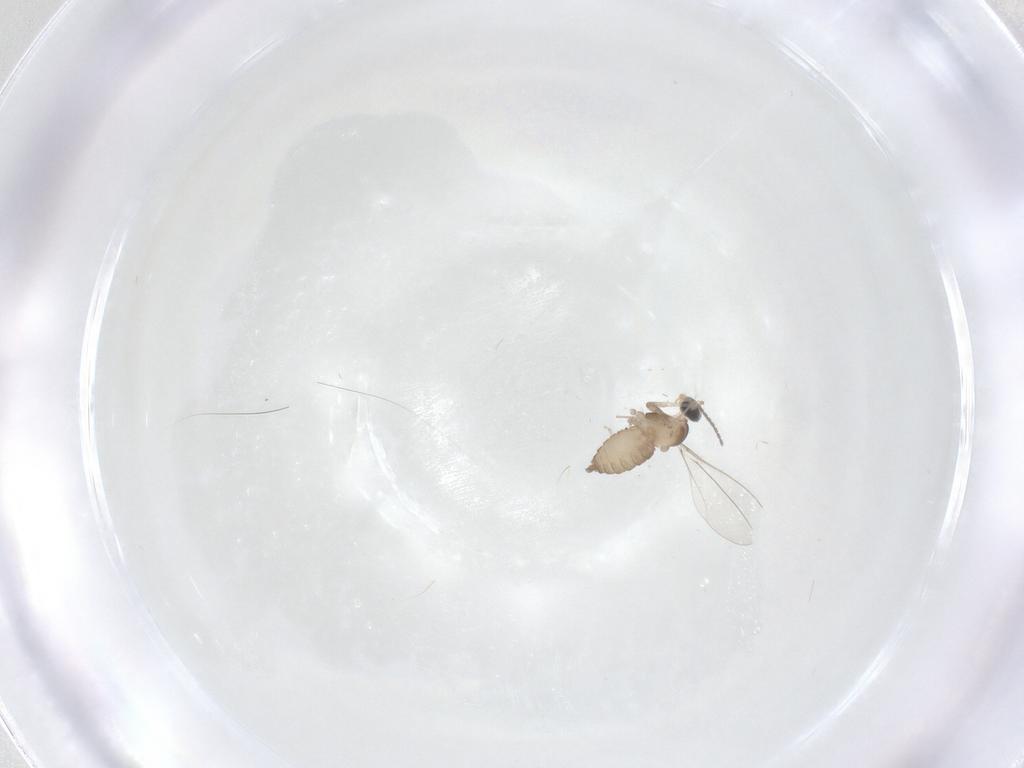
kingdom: Animalia
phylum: Arthropoda
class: Insecta
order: Diptera
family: Cecidomyiidae
